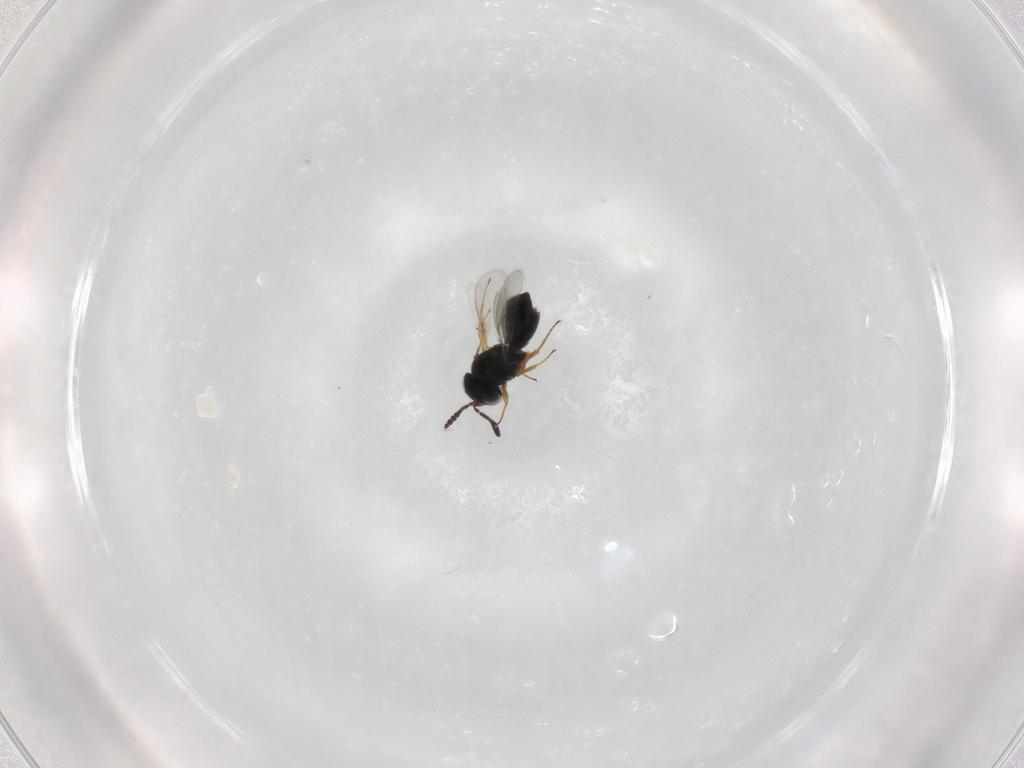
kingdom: Animalia
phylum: Arthropoda
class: Insecta
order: Hymenoptera
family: Scelionidae
